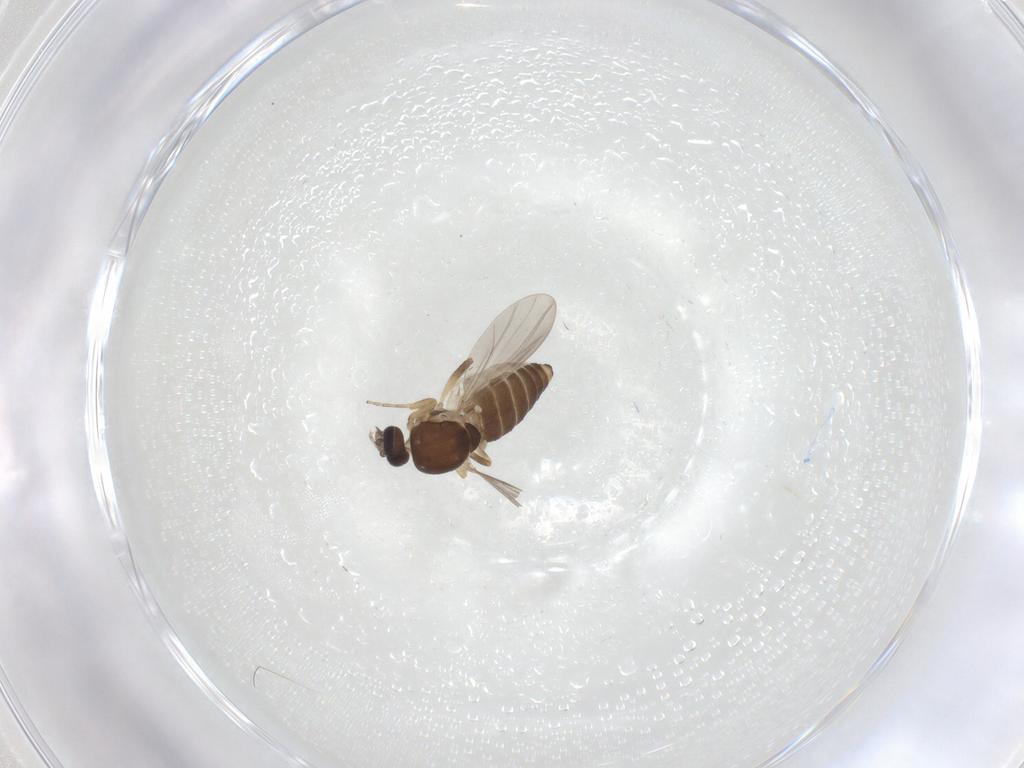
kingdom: Animalia
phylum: Arthropoda
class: Insecta
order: Diptera
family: Ceratopogonidae
